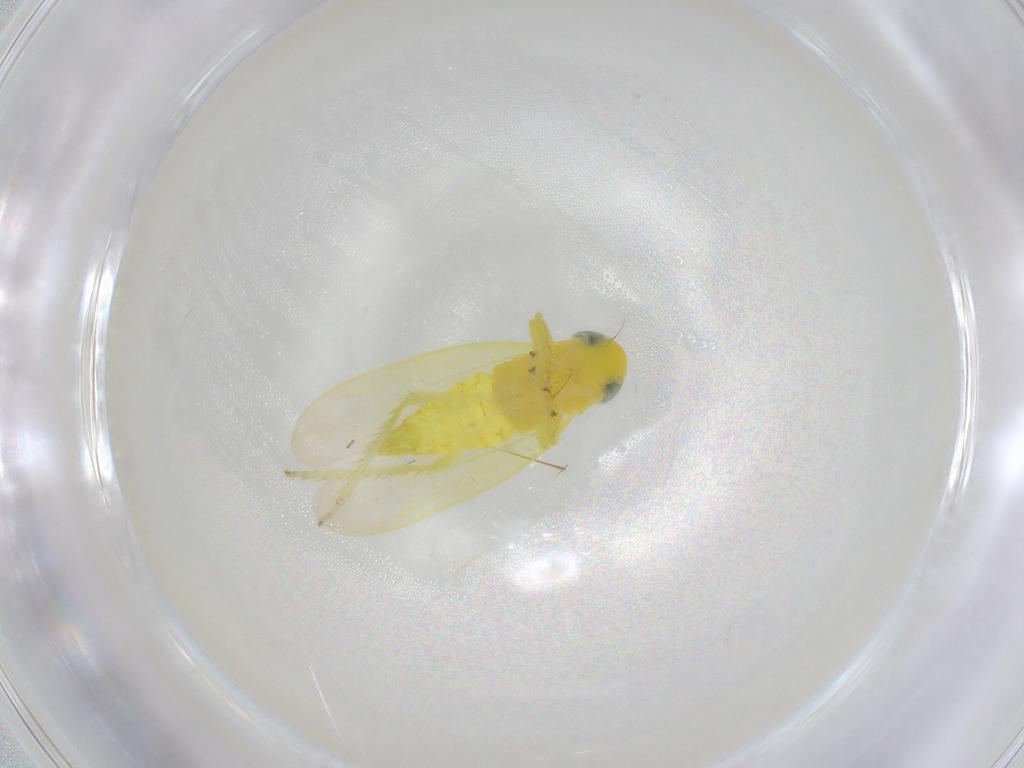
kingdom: Animalia
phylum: Arthropoda
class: Insecta
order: Hemiptera
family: Cicadellidae
